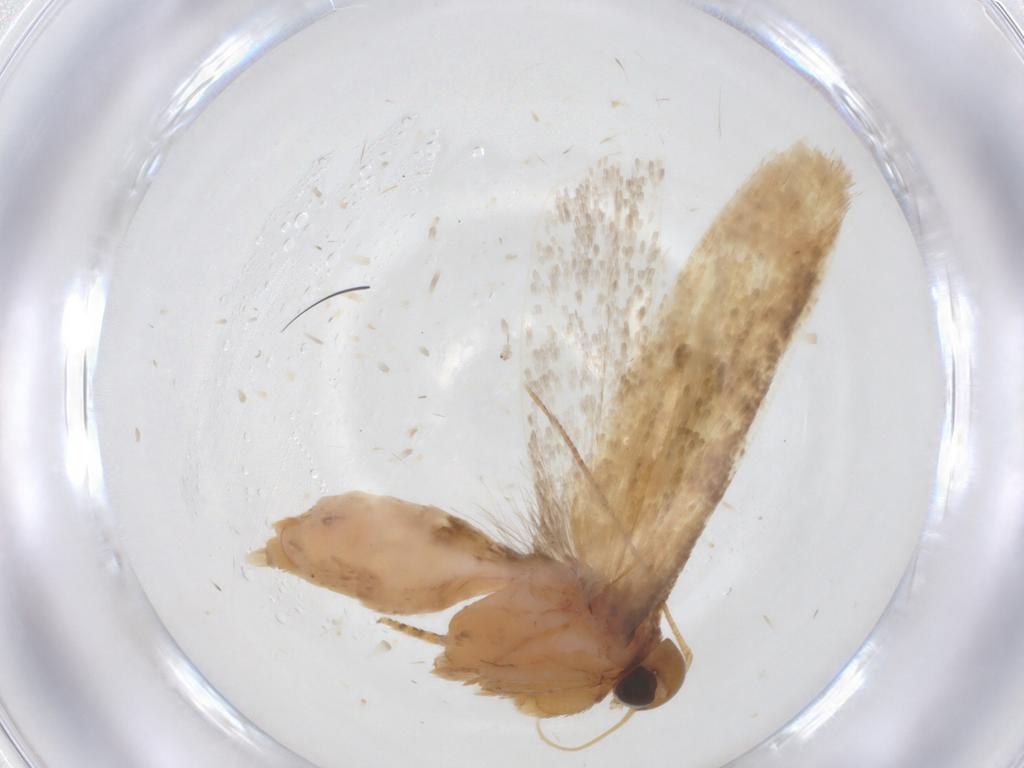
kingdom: Animalia
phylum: Arthropoda
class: Insecta
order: Lepidoptera
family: Gelechiidae
